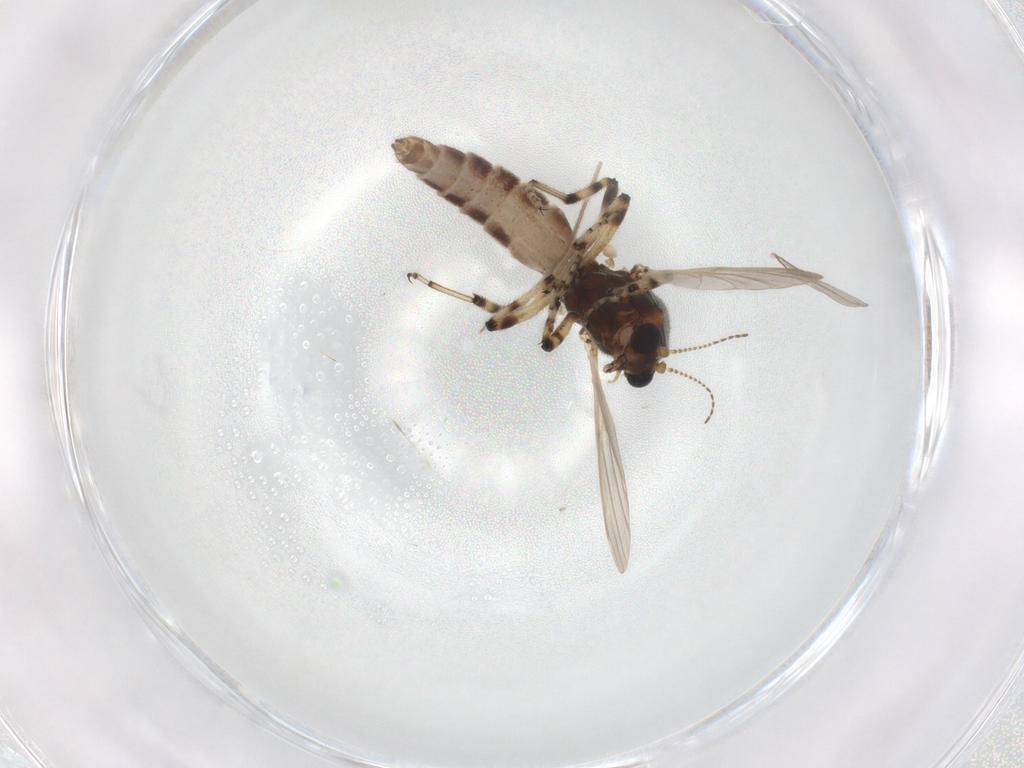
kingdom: Animalia
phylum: Arthropoda
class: Insecta
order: Diptera
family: Ceratopogonidae
